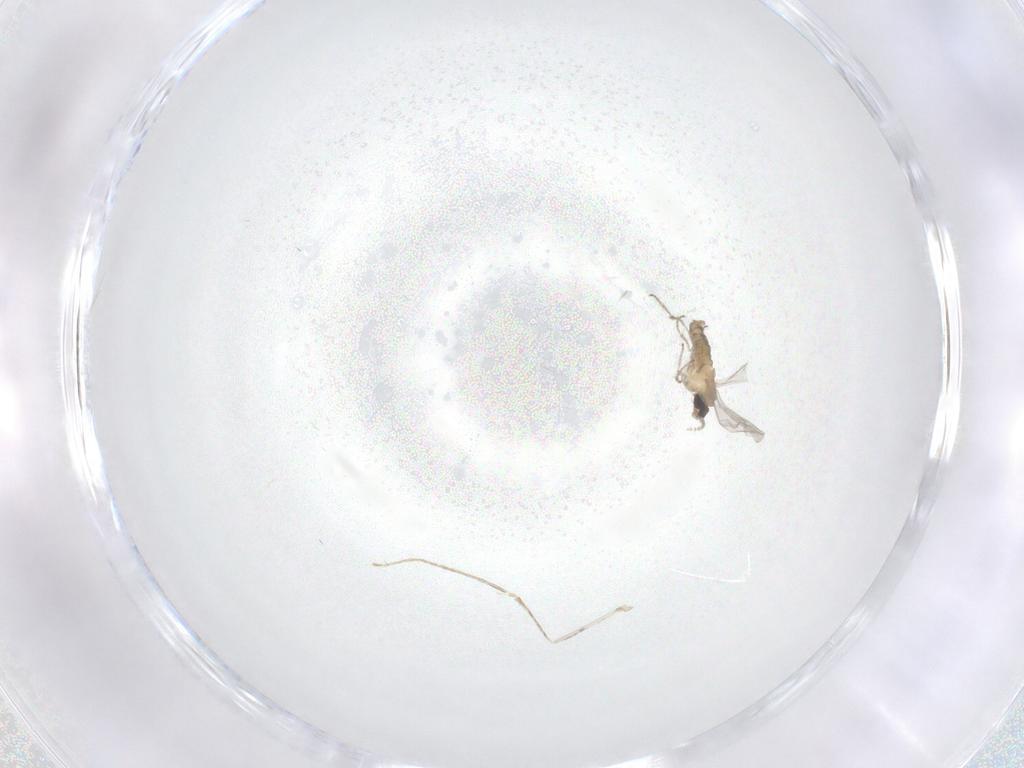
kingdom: Animalia
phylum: Arthropoda
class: Insecta
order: Diptera
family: Cecidomyiidae
